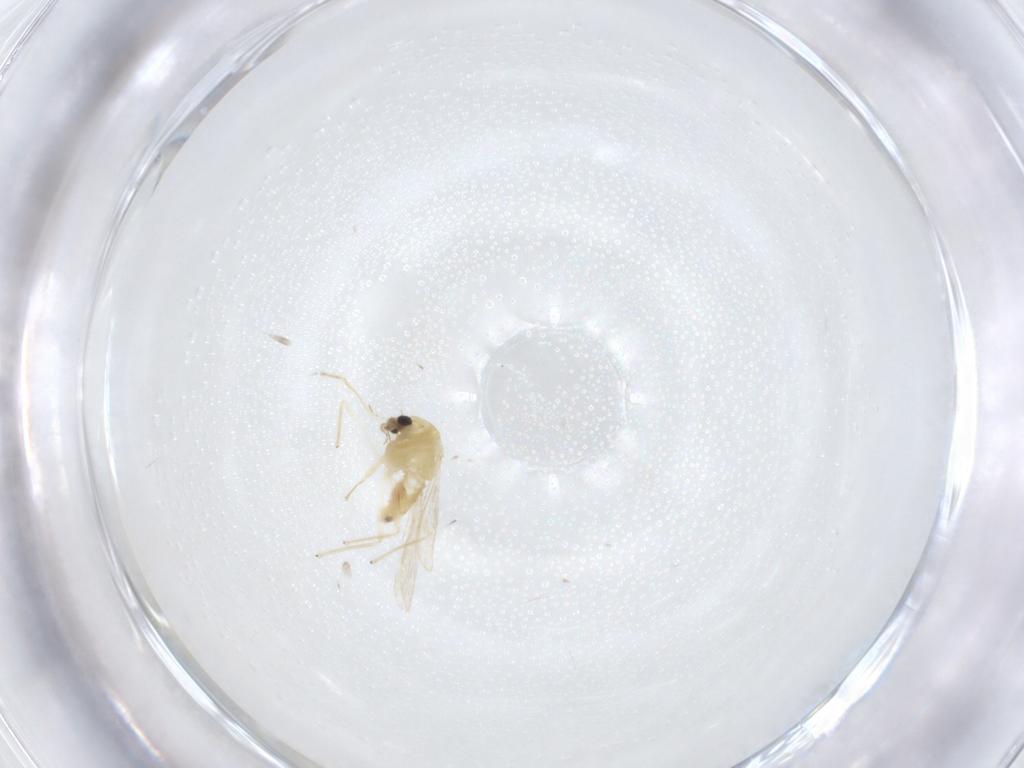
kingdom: Animalia
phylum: Arthropoda
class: Insecta
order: Diptera
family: Chironomidae
